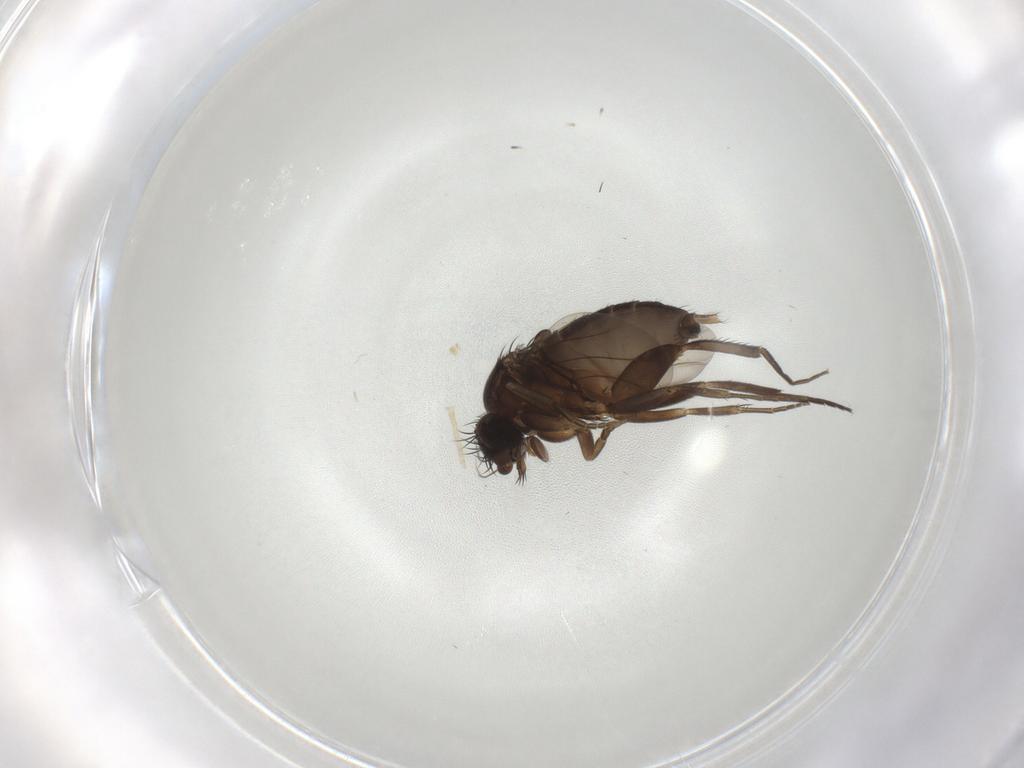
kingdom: Animalia
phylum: Arthropoda
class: Insecta
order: Diptera
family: Phoridae
